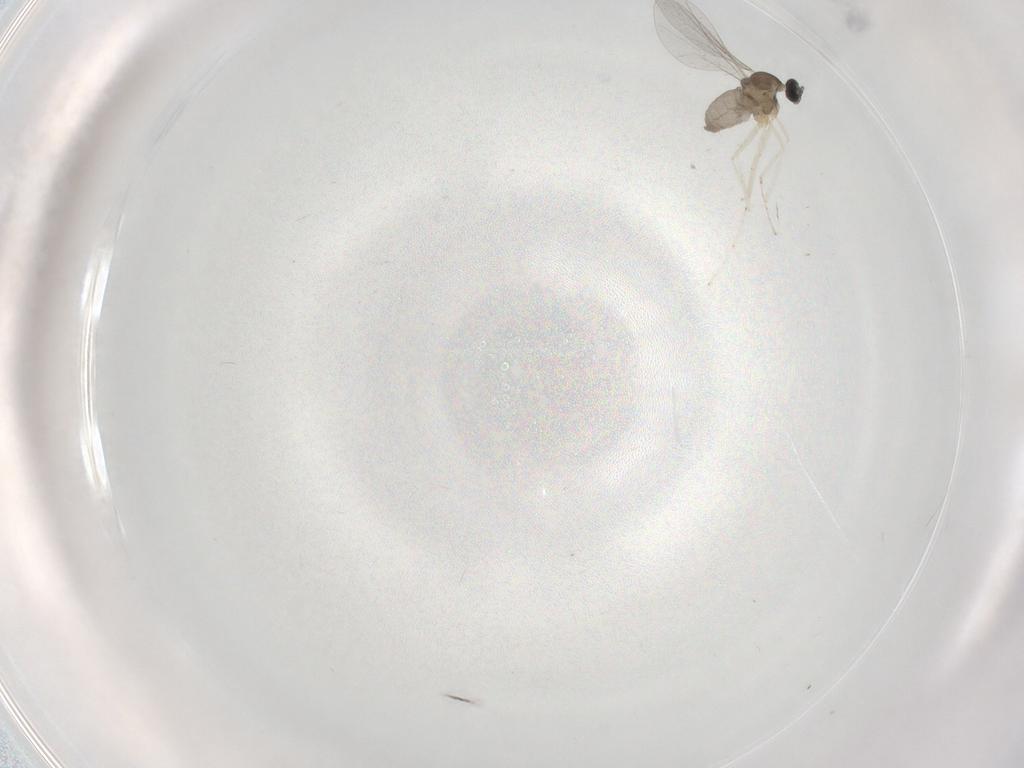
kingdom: Animalia
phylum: Arthropoda
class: Insecta
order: Diptera
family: Cecidomyiidae
